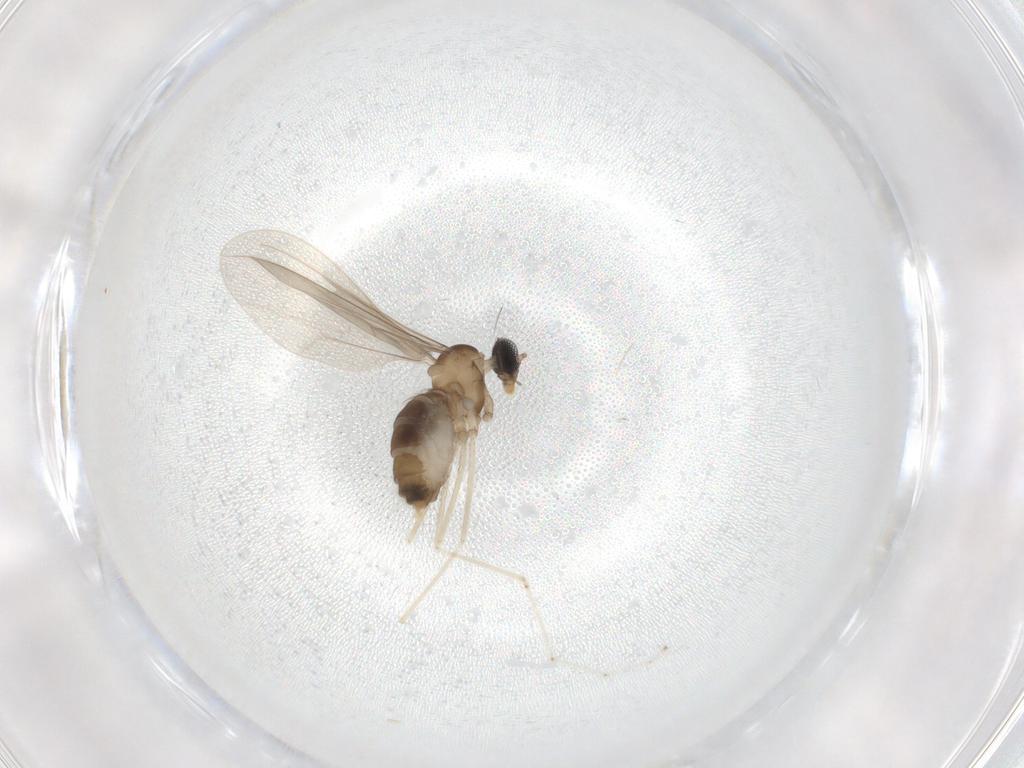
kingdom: Animalia
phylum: Arthropoda
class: Insecta
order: Diptera
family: Cecidomyiidae
